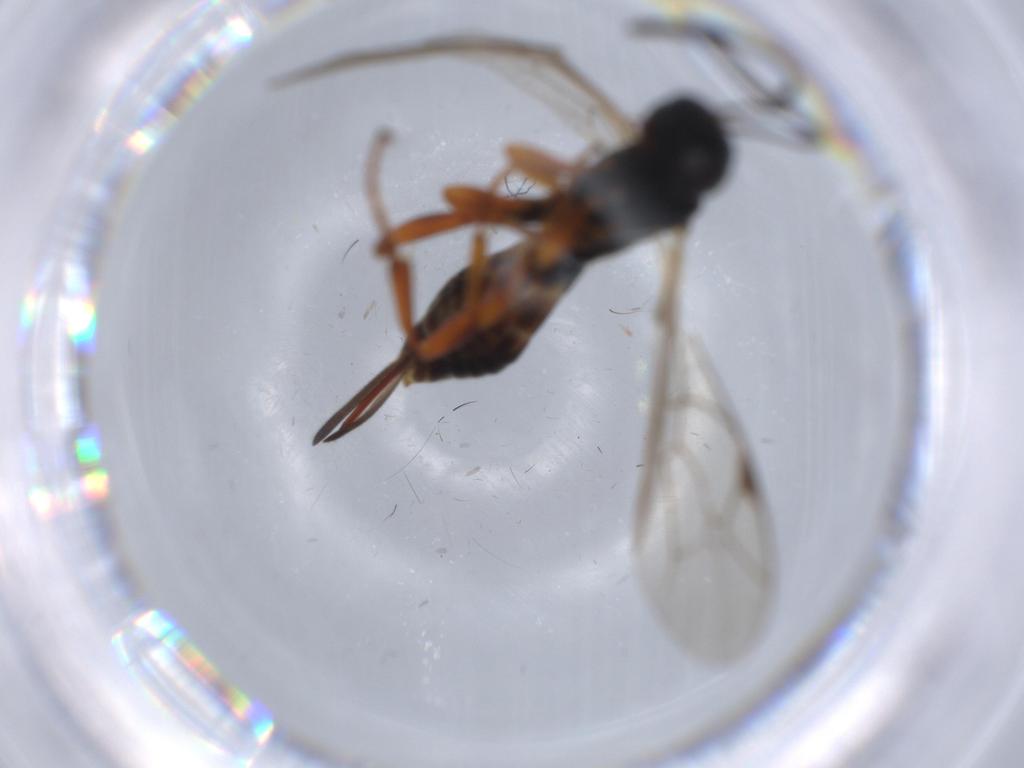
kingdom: Animalia
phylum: Arthropoda
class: Insecta
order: Hymenoptera
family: Ichneumonidae
